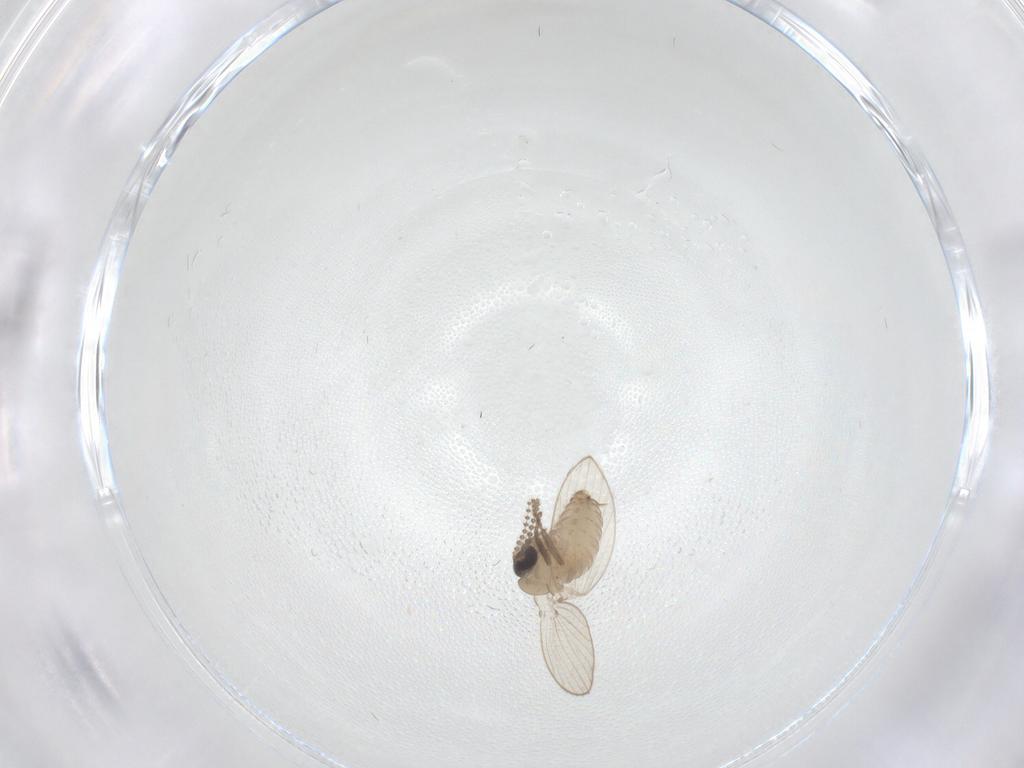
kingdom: Animalia
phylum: Arthropoda
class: Insecta
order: Diptera
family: Limoniidae
